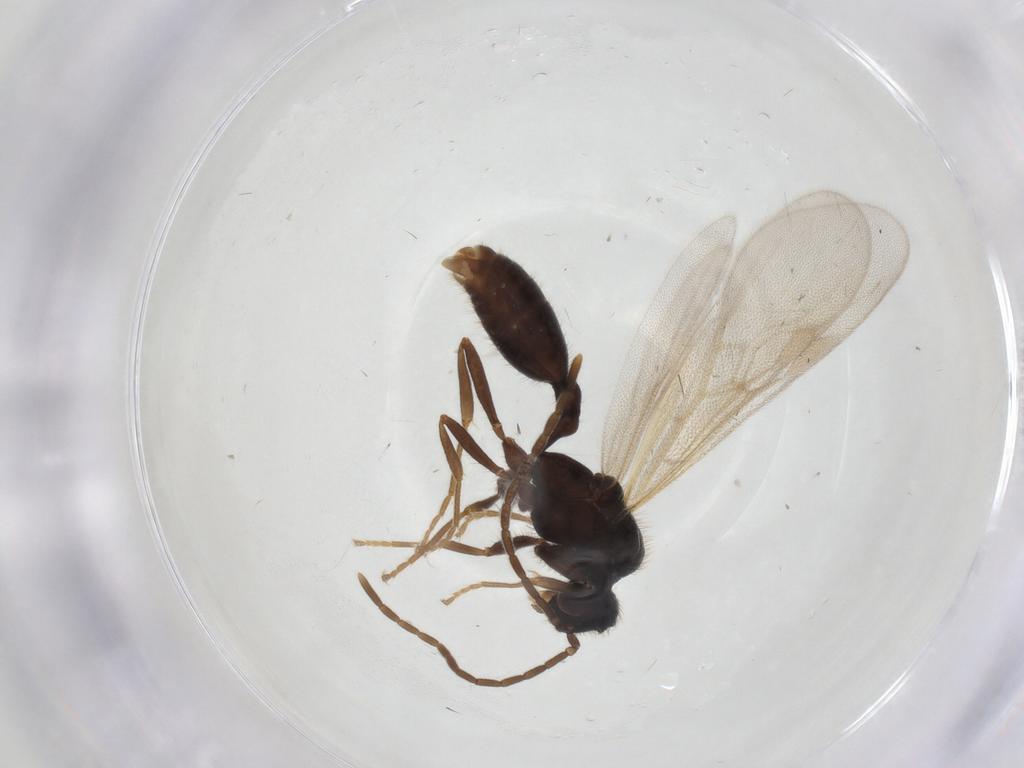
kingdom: Animalia
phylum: Arthropoda
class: Insecta
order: Hymenoptera
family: Formicidae
